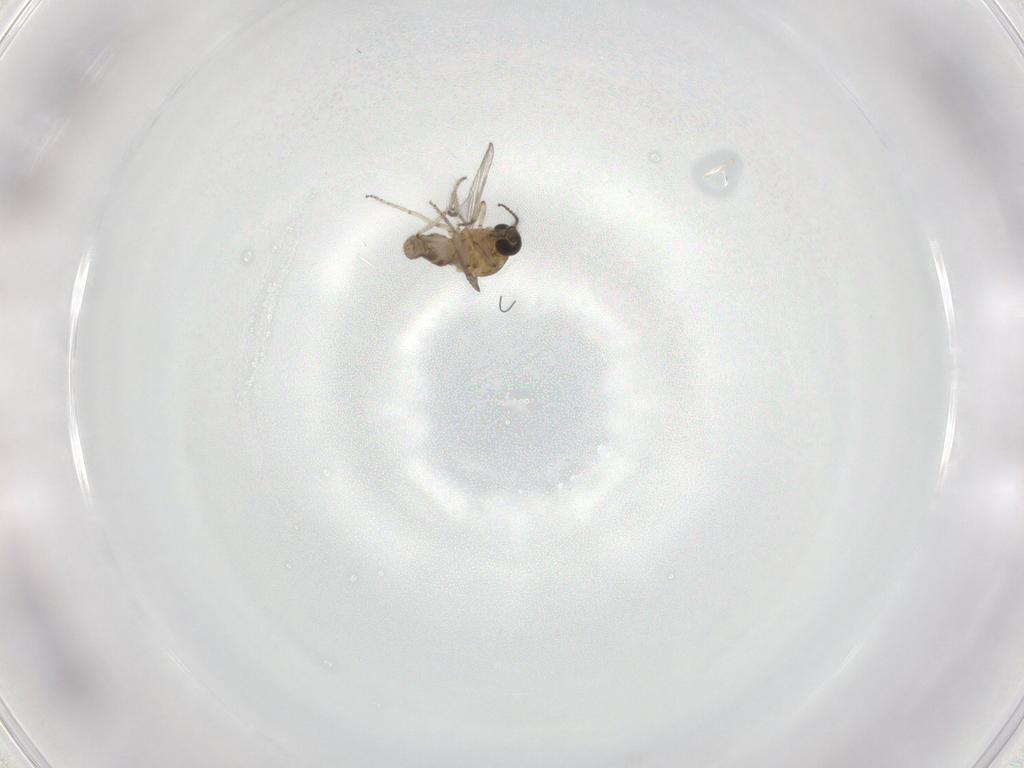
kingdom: Animalia
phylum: Arthropoda
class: Insecta
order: Diptera
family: Ceratopogonidae
